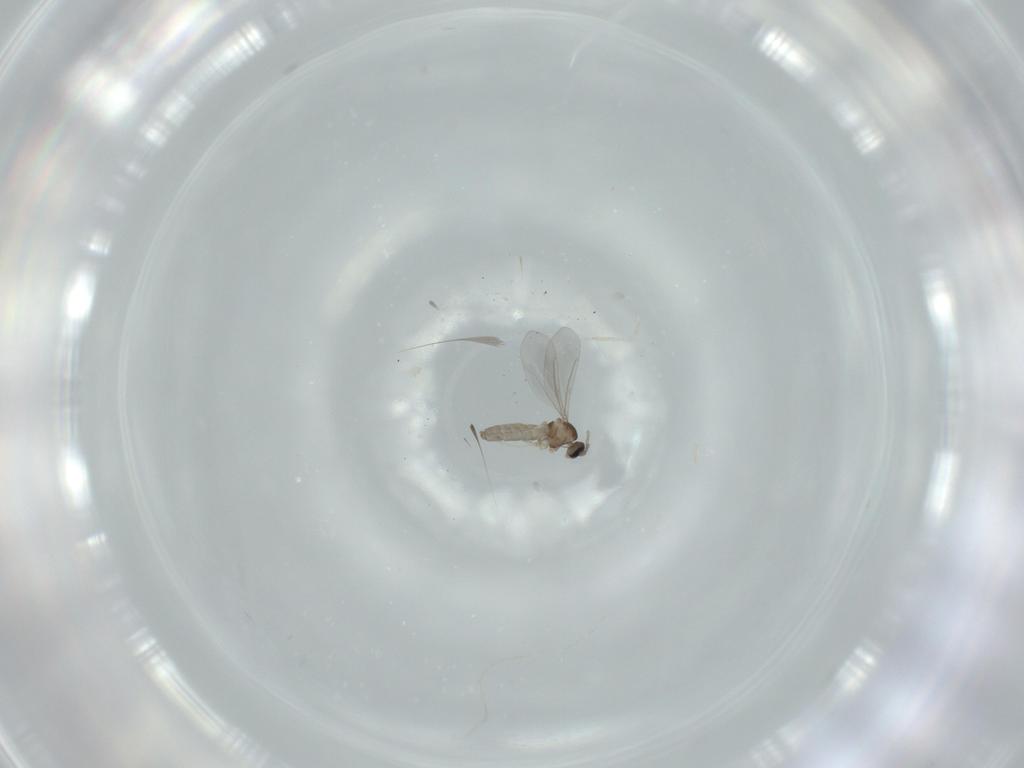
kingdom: Animalia
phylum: Arthropoda
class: Insecta
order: Diptera
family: Cecidomyiidae
